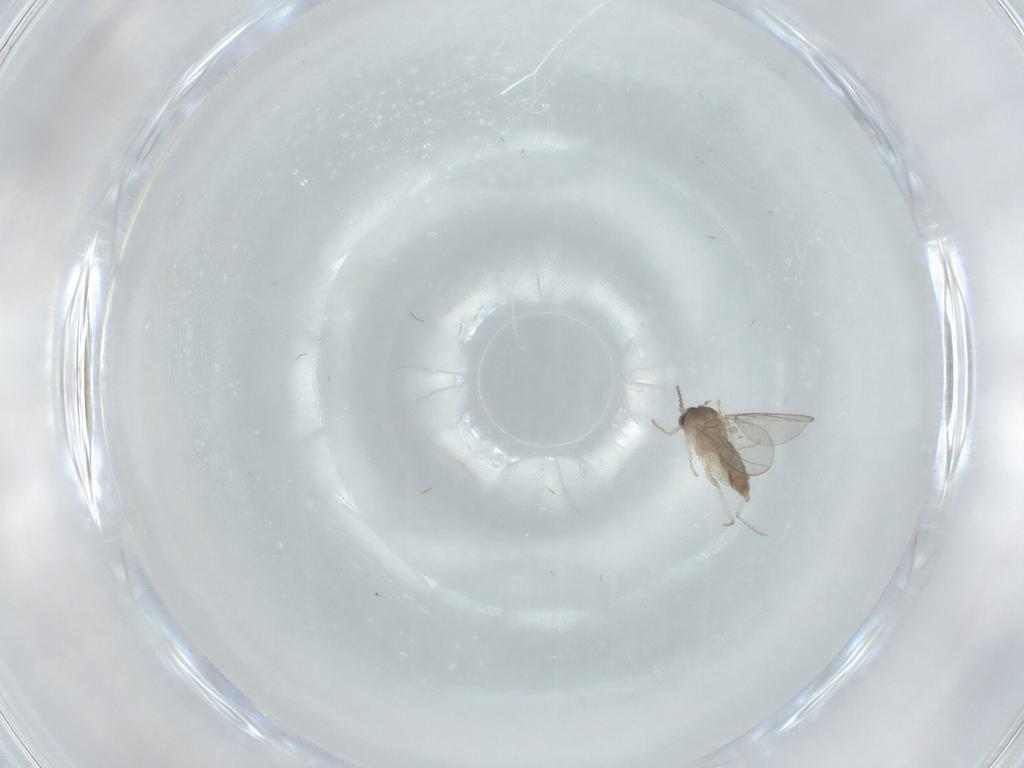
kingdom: Animalia
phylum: Arthropoda
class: Insecta
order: Diptera
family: Cecidomyiidae
